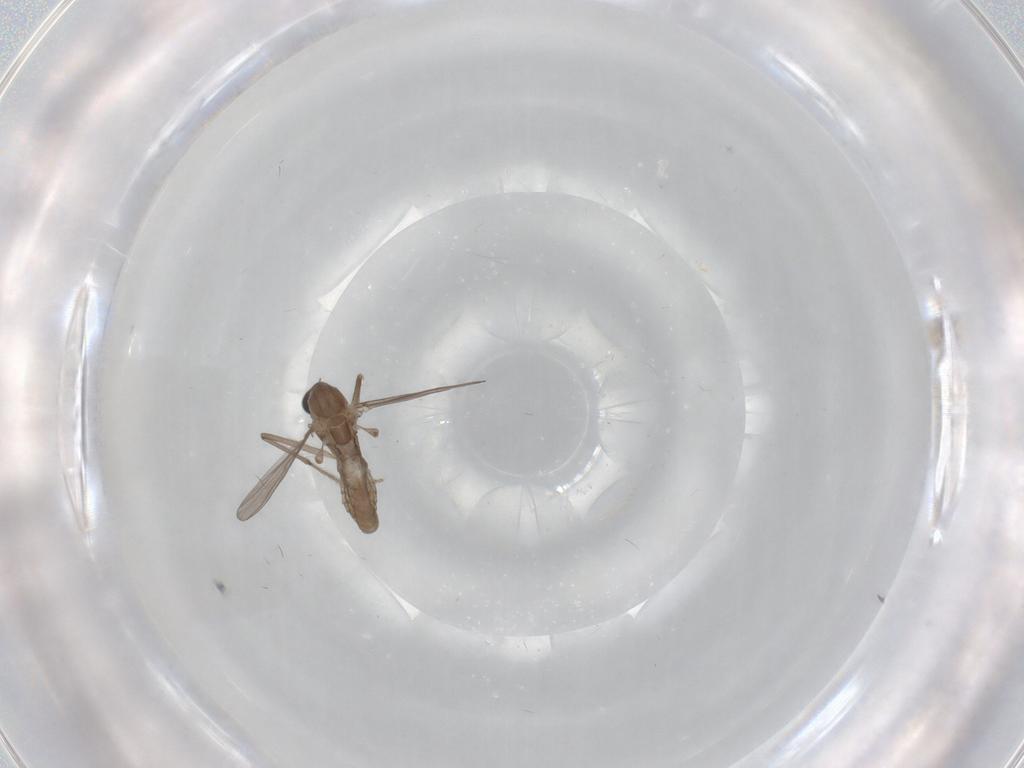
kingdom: Animalia
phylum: Arthropoda
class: Insecta
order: Diptera
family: Chironomidae
